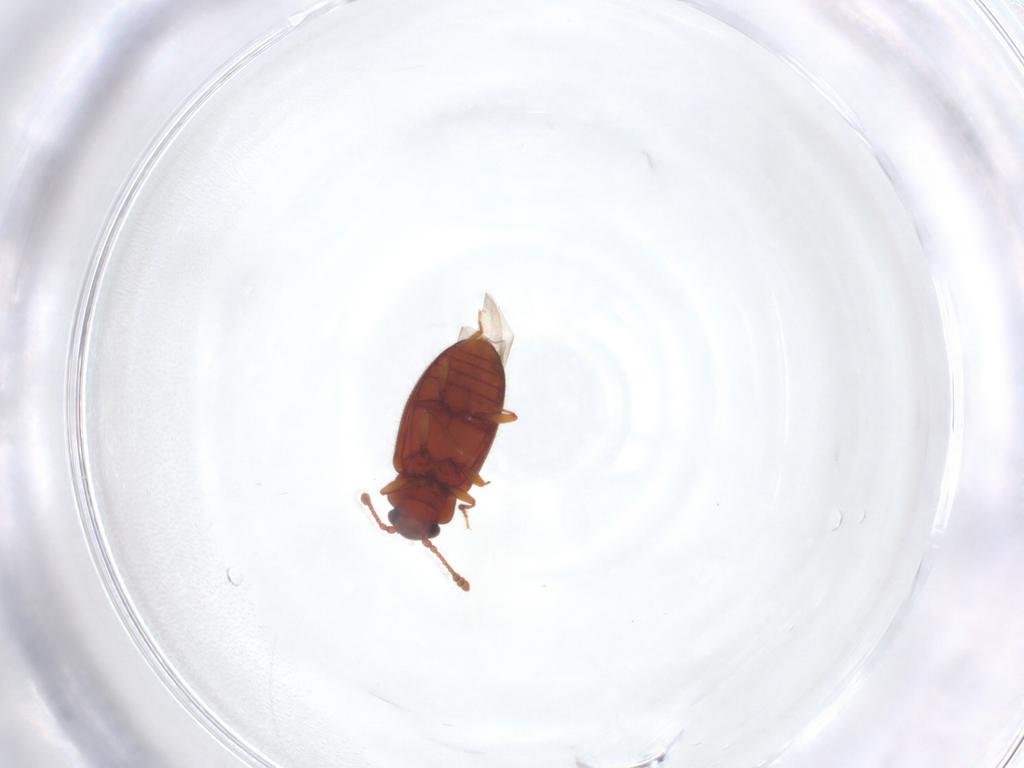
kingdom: Animalia
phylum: Arthropoda
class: Insecta
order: Coleoptera
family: Cryptophagidae
